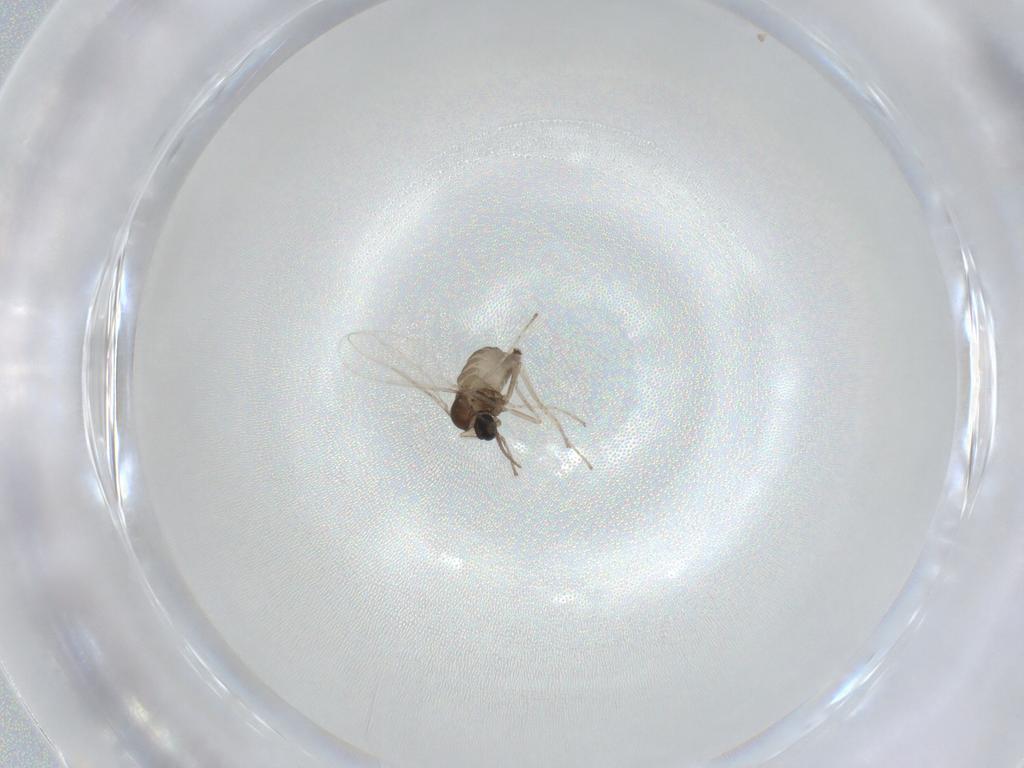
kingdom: Animalia
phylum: Arthropoda
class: Insecta
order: Diptera
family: Cecidomyiidae
